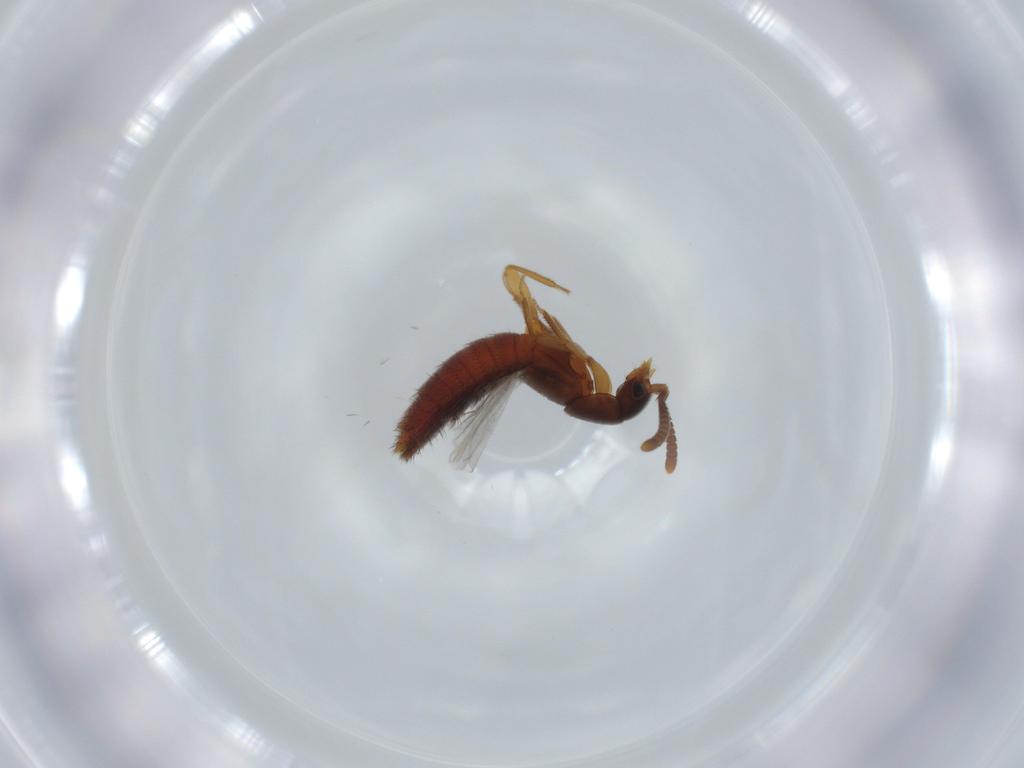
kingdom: Animalia
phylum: Arthropoda
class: Insecta
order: Coleoptera
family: Staphylinidae
